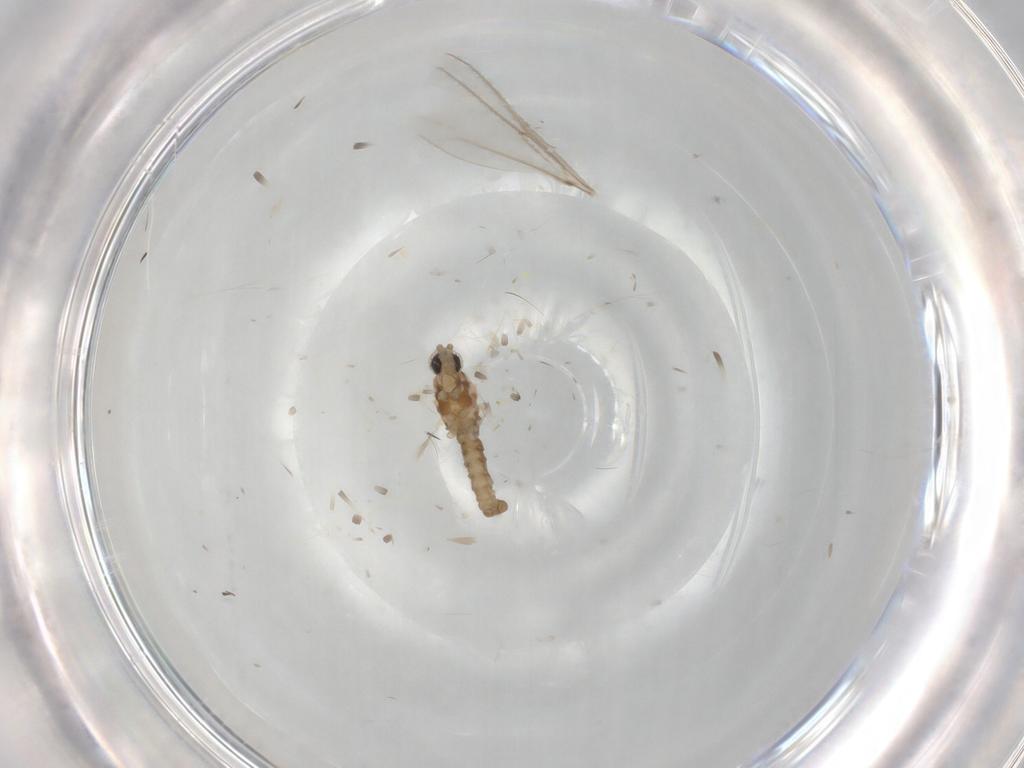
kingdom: Animalia
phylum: Arthropoda
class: Insecta
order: Diptera
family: Cecidomyiidae
